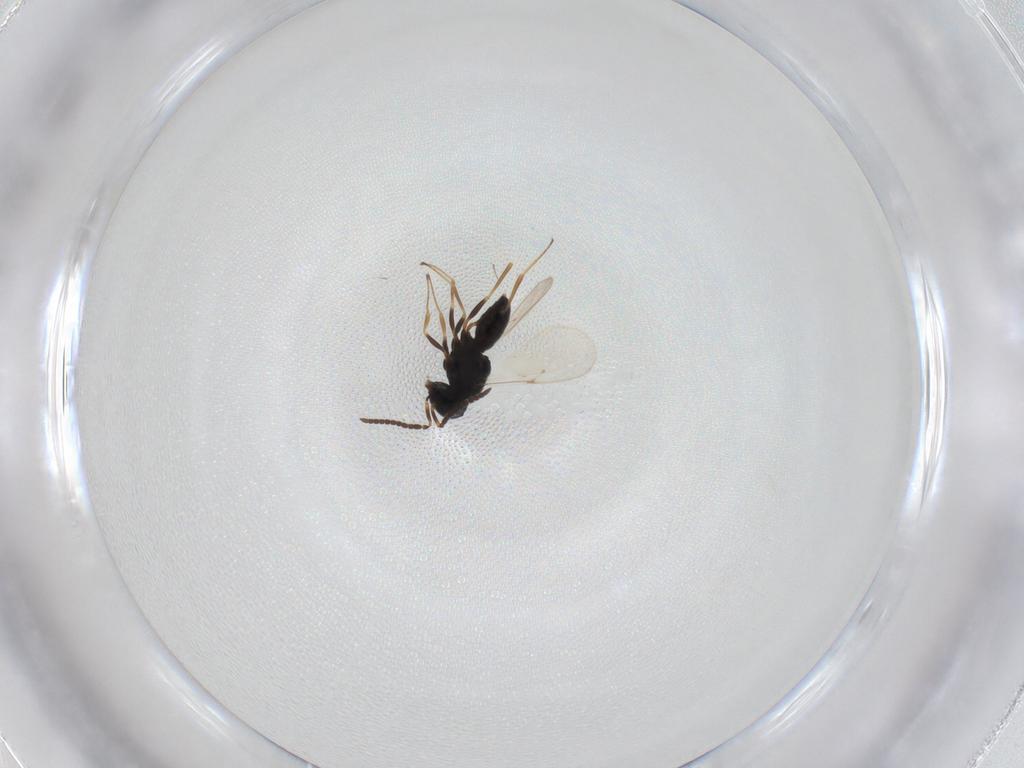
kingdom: Animalia
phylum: Arthropoda
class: Insecta
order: Hymenoptera
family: Scelionidae
